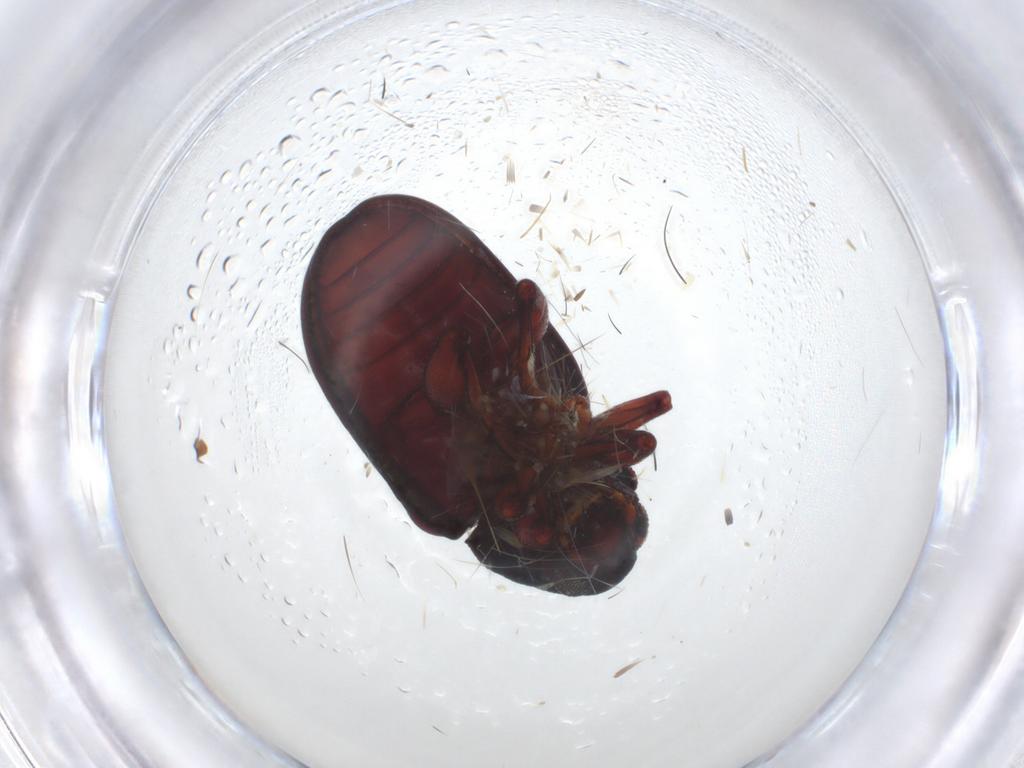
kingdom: Animalia
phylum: Arthropoda
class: Insecta
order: Coleoptera
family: Chrysomelidae
